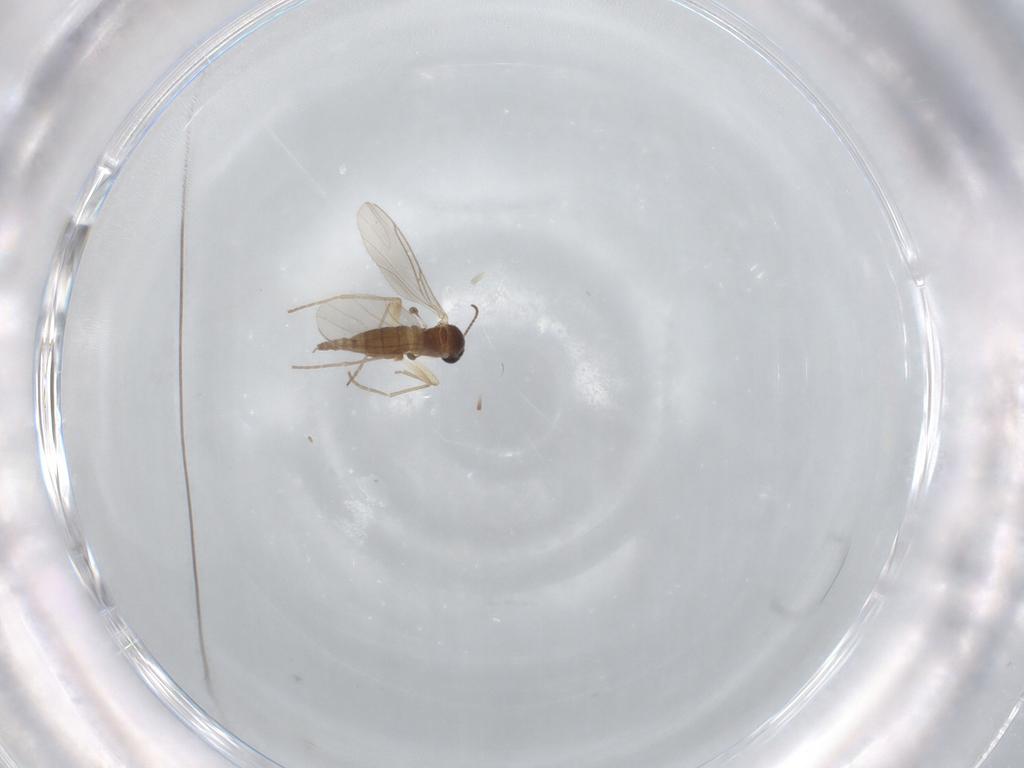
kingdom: Animalia
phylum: Arthropoda
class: Insecta
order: Diptera
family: Sciaridae
